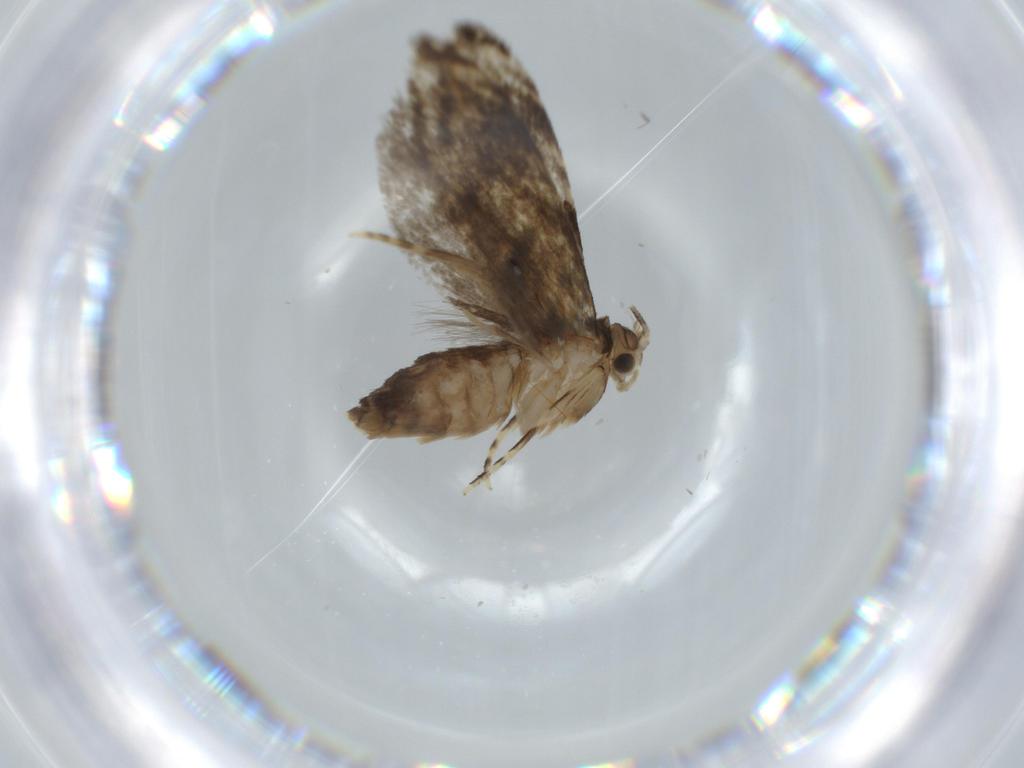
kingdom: Animalia
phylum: Arthropoda
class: Insecta
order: Lepidoptera
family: Tineidae
